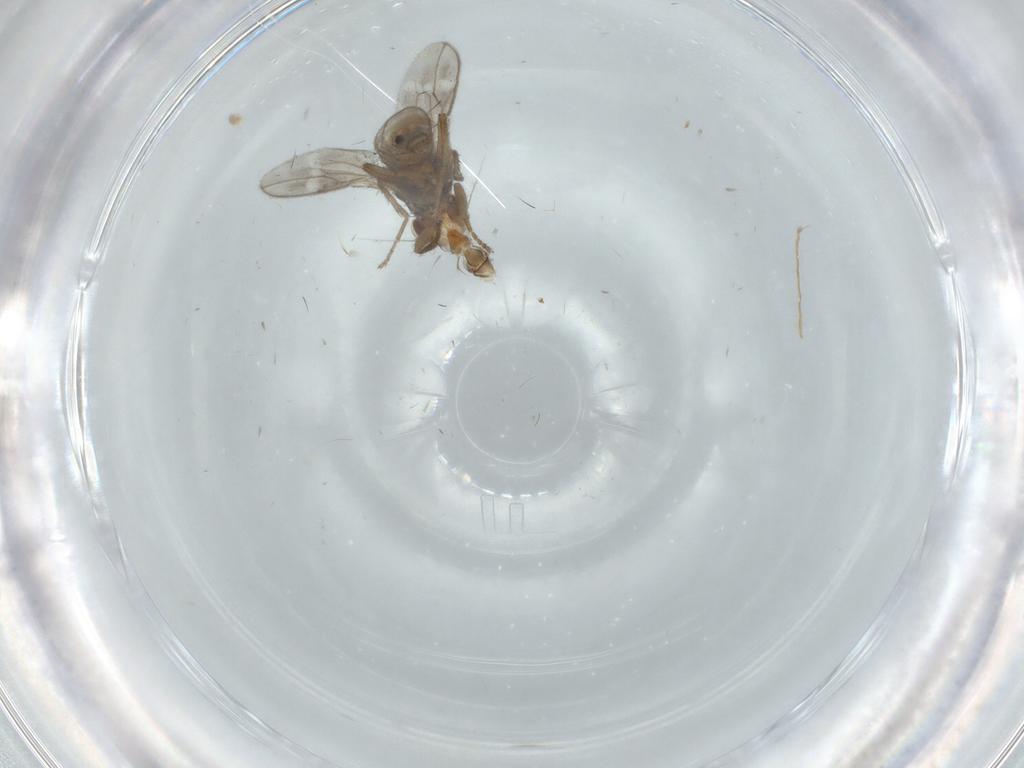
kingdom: Animalia
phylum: Arthropoda
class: Insecta
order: Diptera
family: Sphaeroceridae
